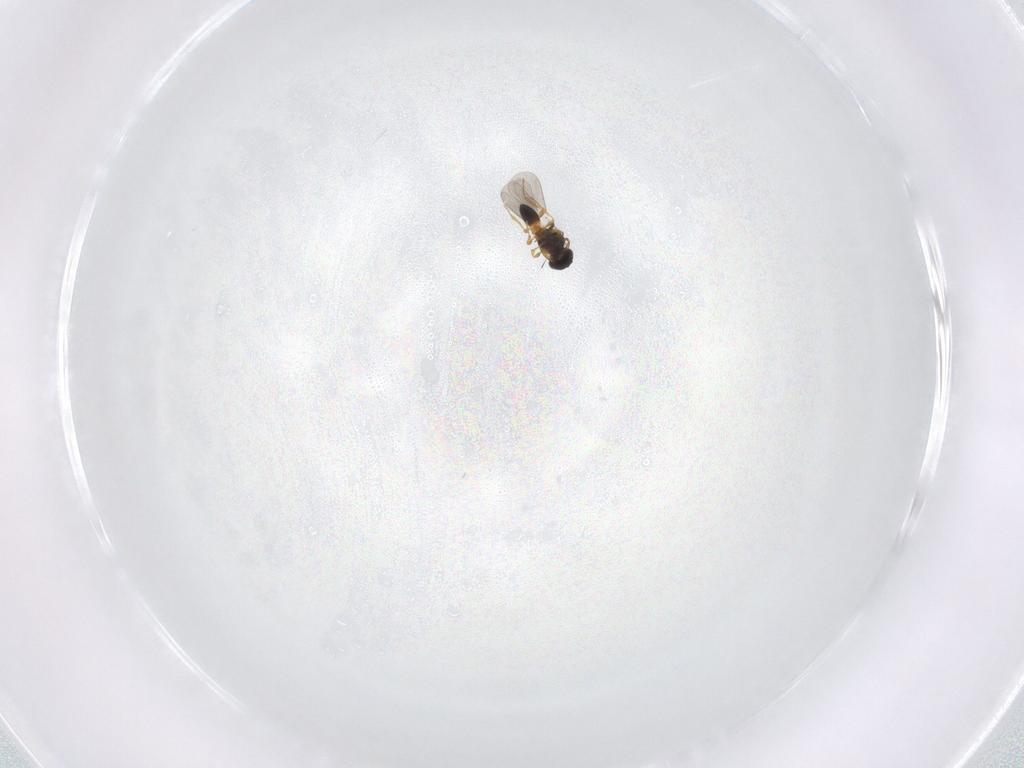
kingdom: Animalia
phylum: Arthropoda
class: Insecta
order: Hymenoptera
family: Platygastridae
